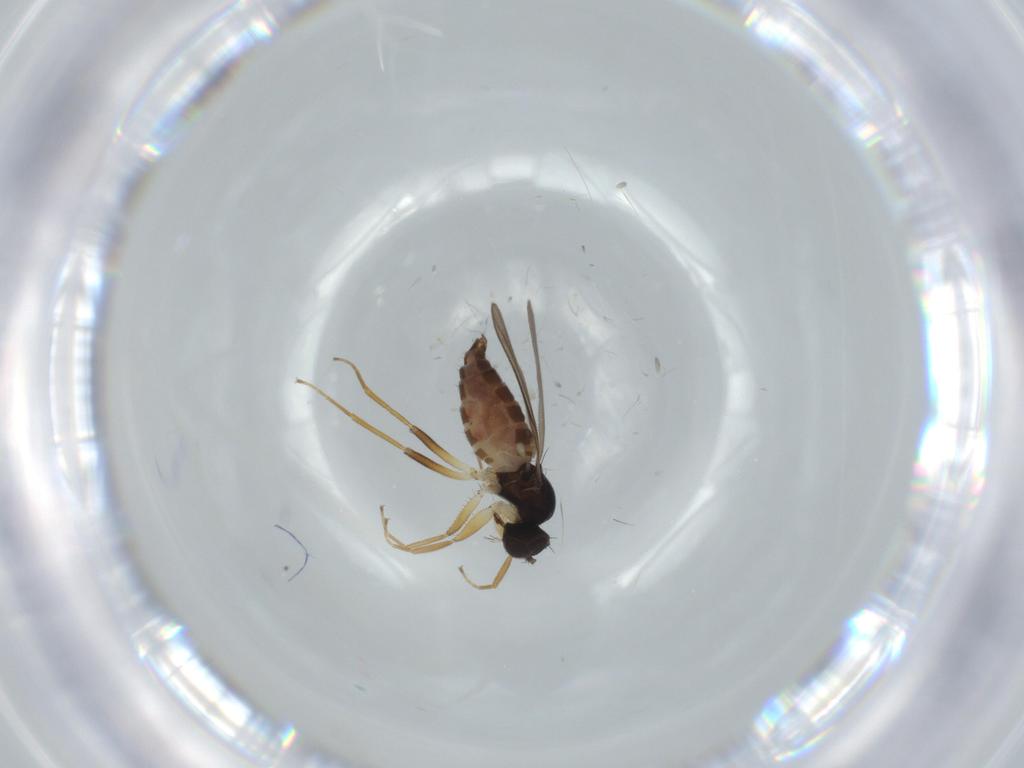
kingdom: Animalia
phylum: Arthropoda
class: Insecta
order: Diptera
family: Hybotidae
